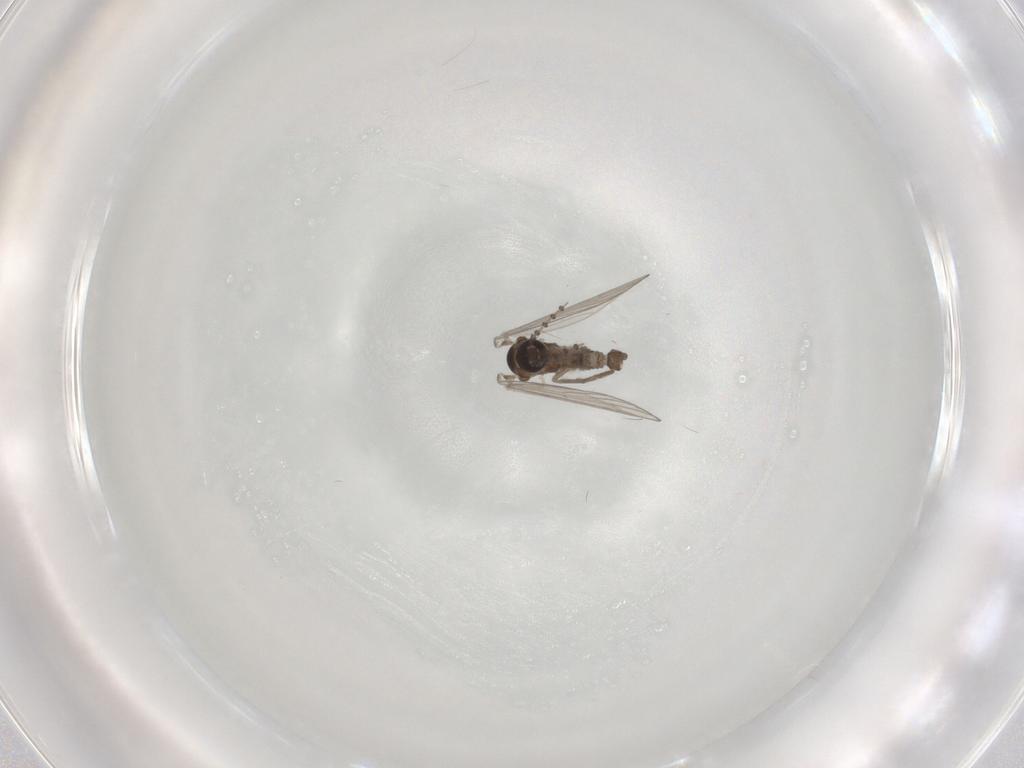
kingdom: Animalia
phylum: Arthropoda
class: Insecta
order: Diptera
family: Psychodidae
